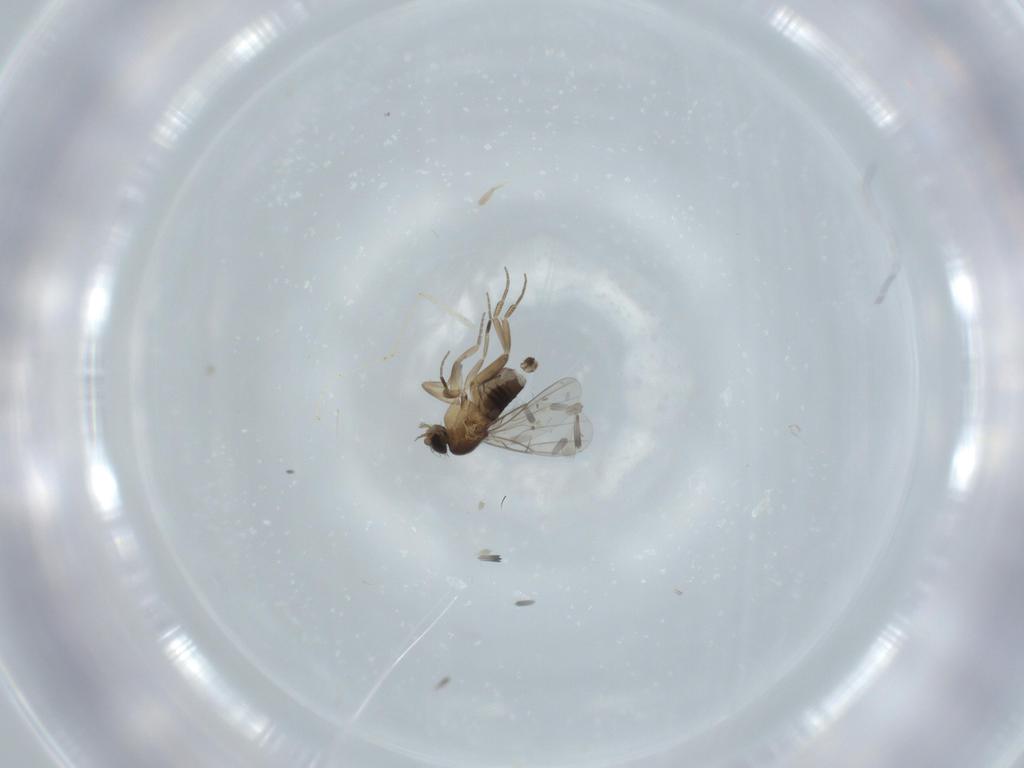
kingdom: Animalia
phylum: Arthropoda
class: Insecta
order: Diptera
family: Phoridae
